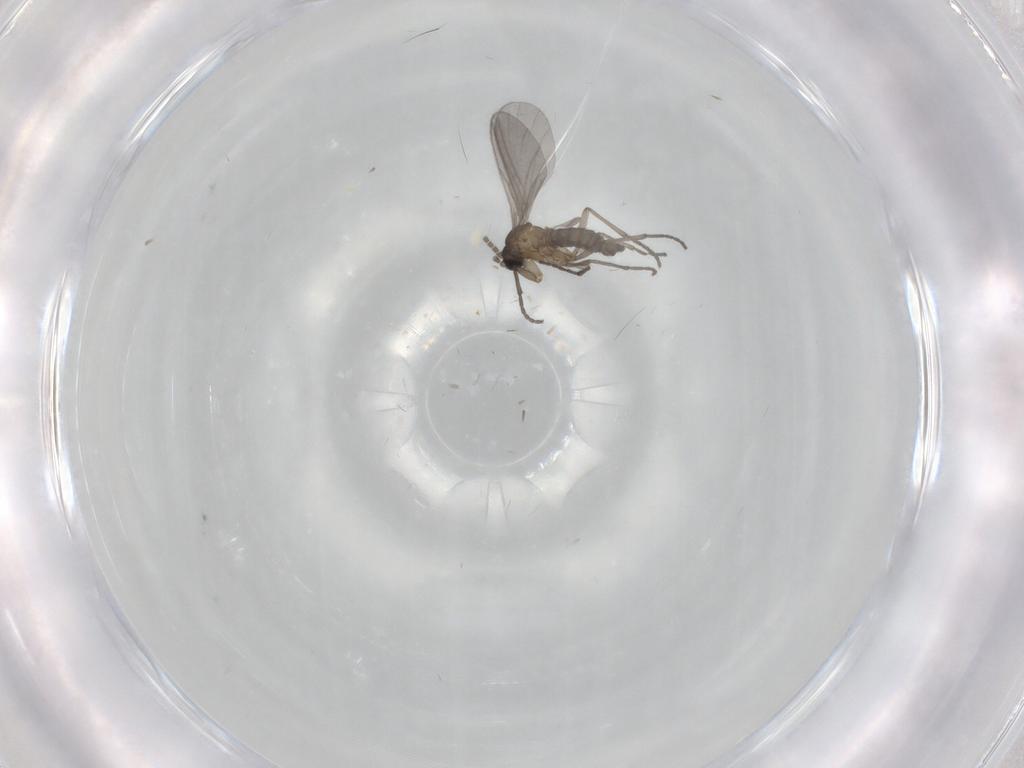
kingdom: Animalia
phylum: Arthropoda
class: Insecta
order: Diptera
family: Sciaridae
